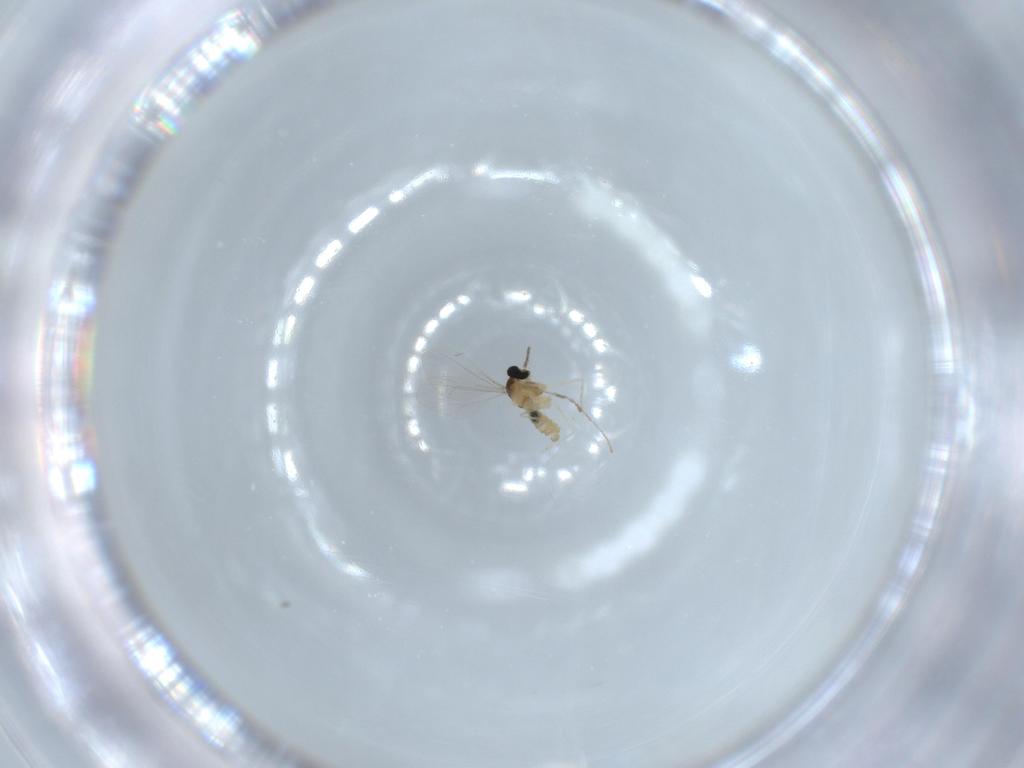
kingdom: Animalia
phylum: Arthropoda
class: Insecta
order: Diptera
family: Cecidomyiidae
